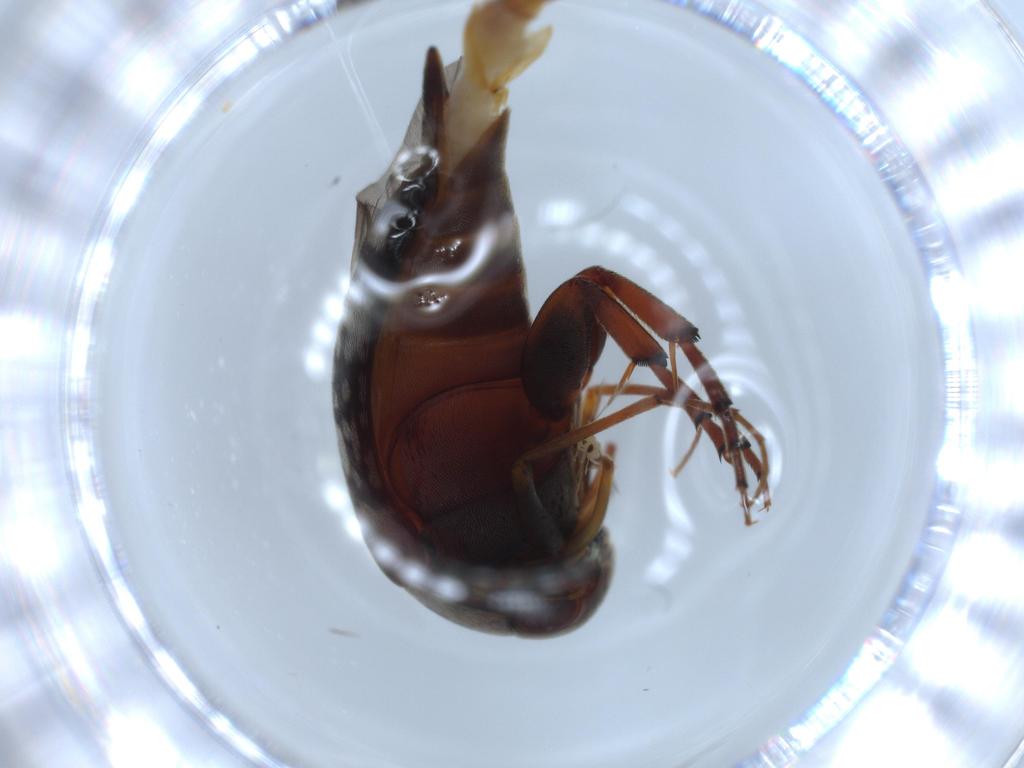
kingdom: Animalia
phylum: Arthropoda
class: Insecta
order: Coleoptera
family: Mordellidae
